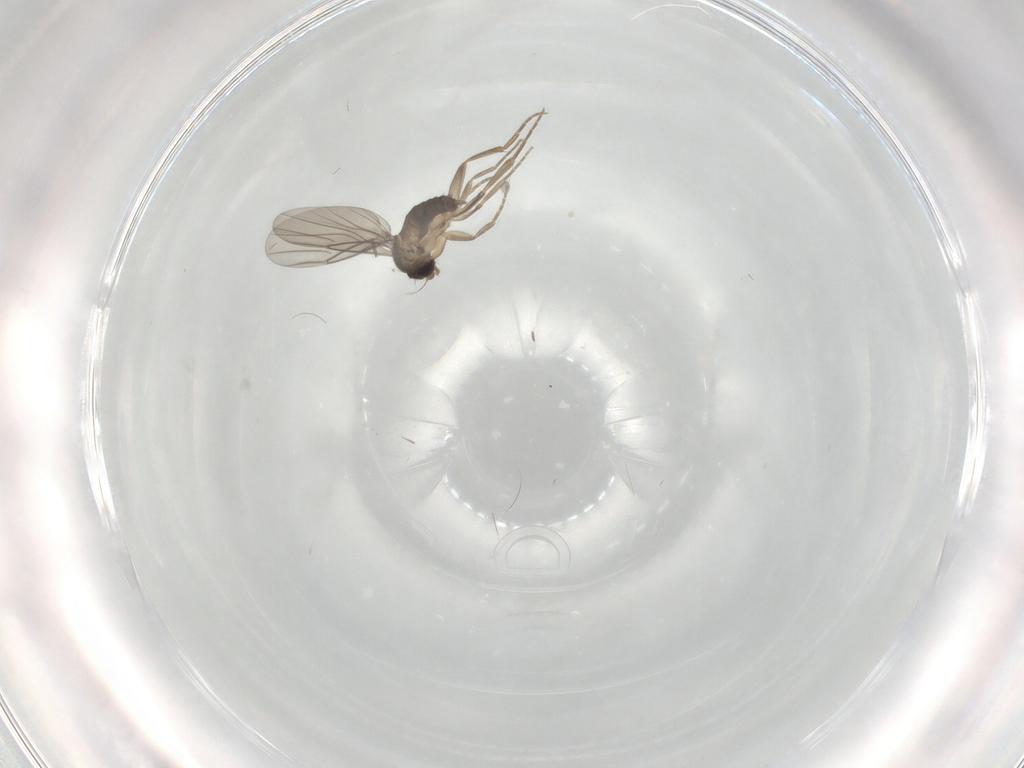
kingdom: Animalia
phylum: Arthropoda
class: Insecta
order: Diptera
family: Phoridae
